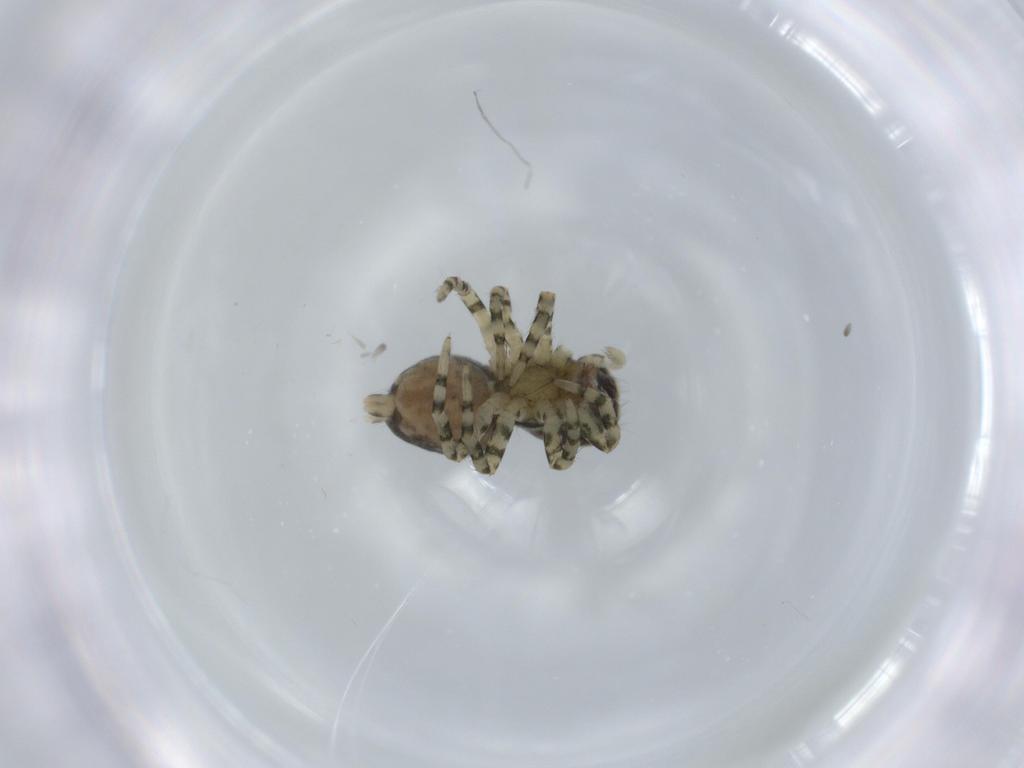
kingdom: Animalia
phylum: Arthropoda
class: Arachnida
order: Araneae
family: Salticidae
